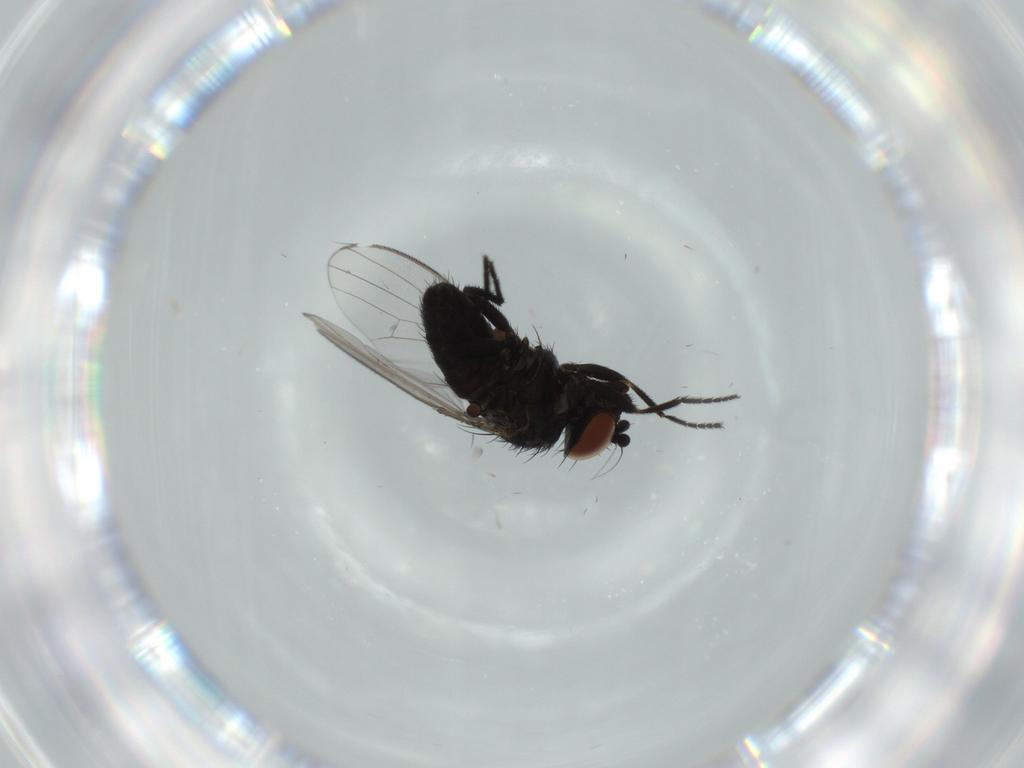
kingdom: Animalia
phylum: Arthropoda
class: Insecta
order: Diptera
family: Milichiidae
